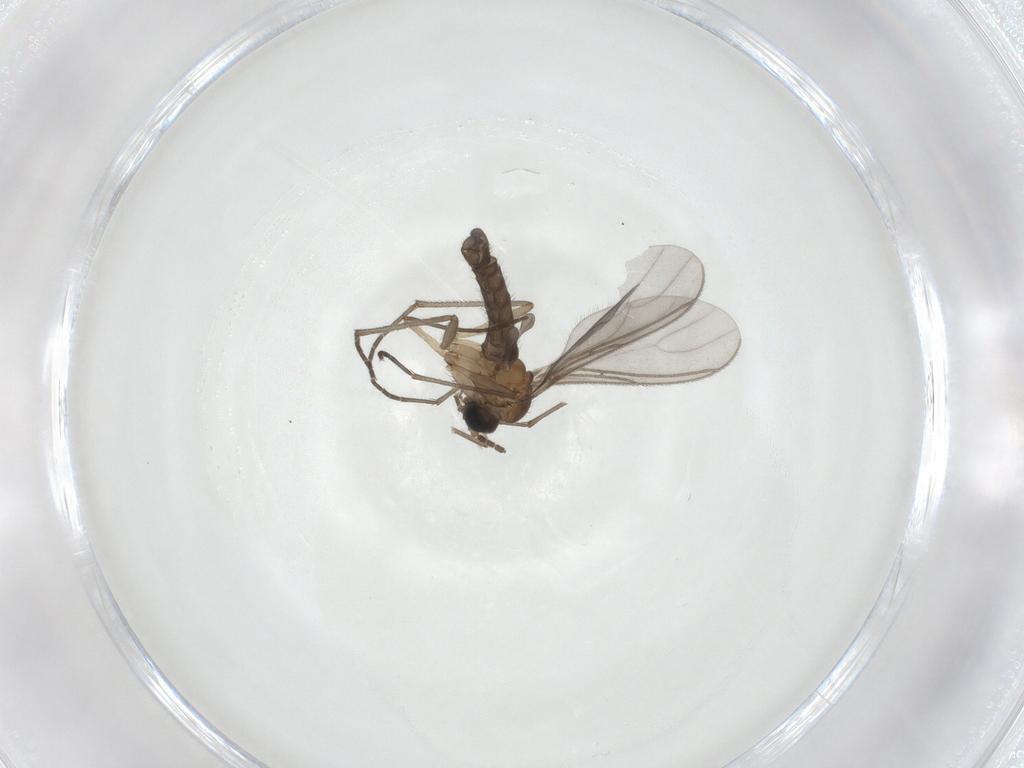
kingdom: Animalia
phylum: Arthropoda
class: Insecta
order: Diptera
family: Sciaridae
